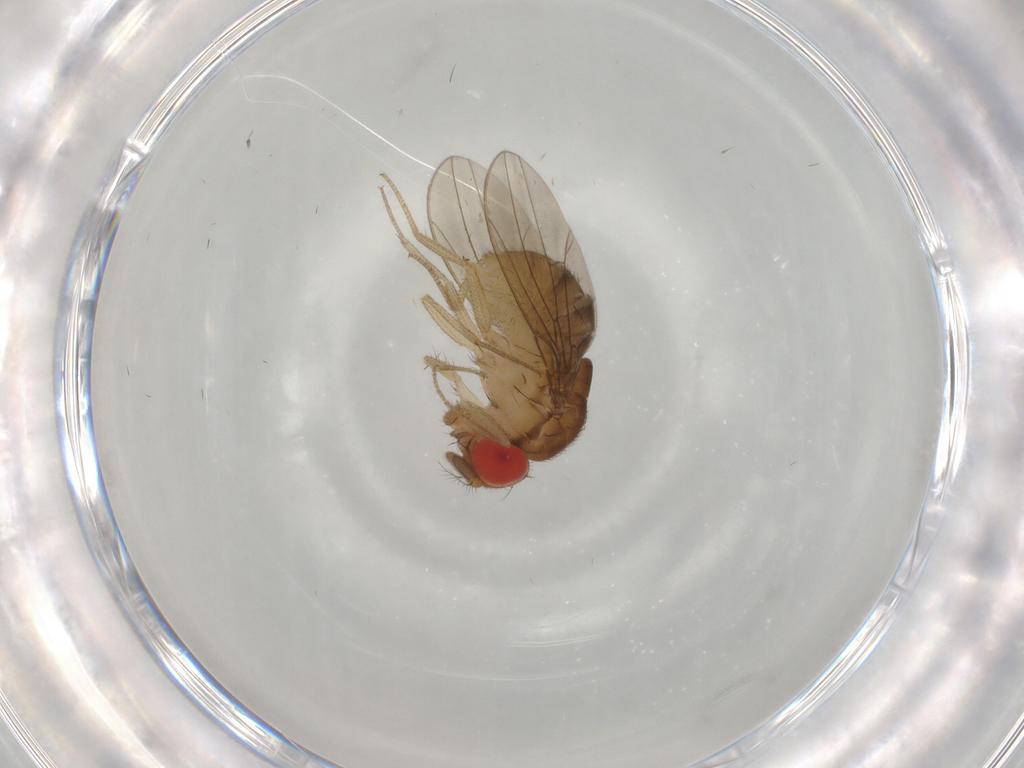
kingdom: Animalia
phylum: Arthropoda
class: Insecta
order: Diptera
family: Chironomidae
